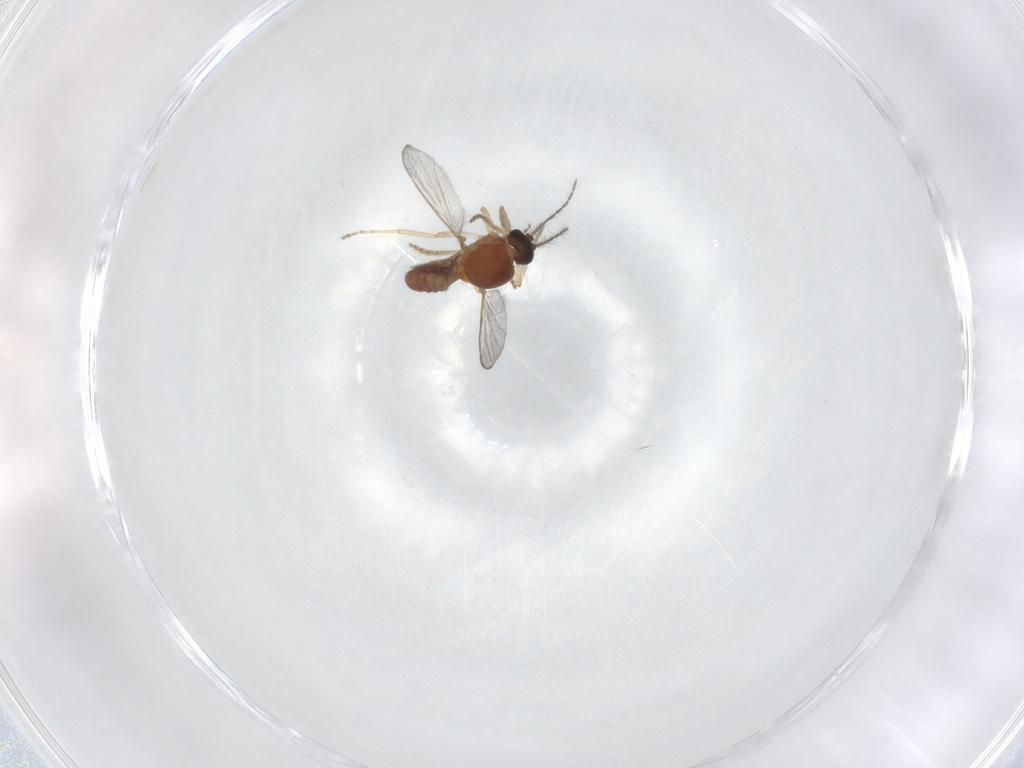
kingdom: Animalia
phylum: Arthropoda
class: Insecta
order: Diptera
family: Ceratopogonidae
